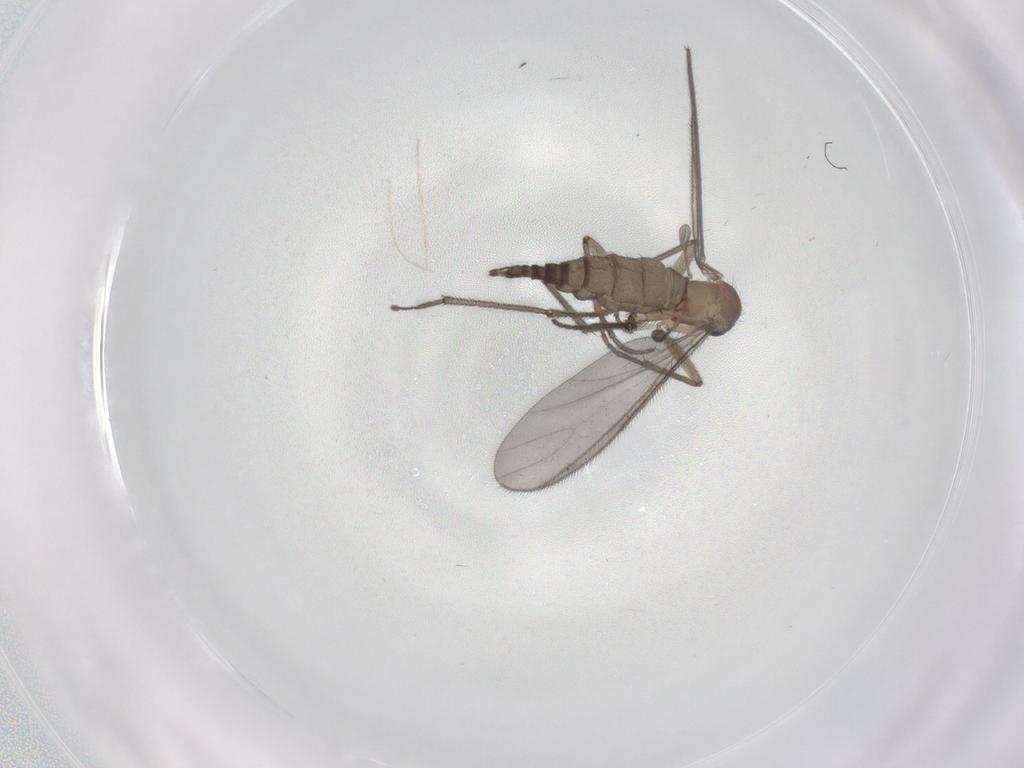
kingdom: Animalia
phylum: Arthropoda
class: Insecta
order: Diptera
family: Sciaridae
